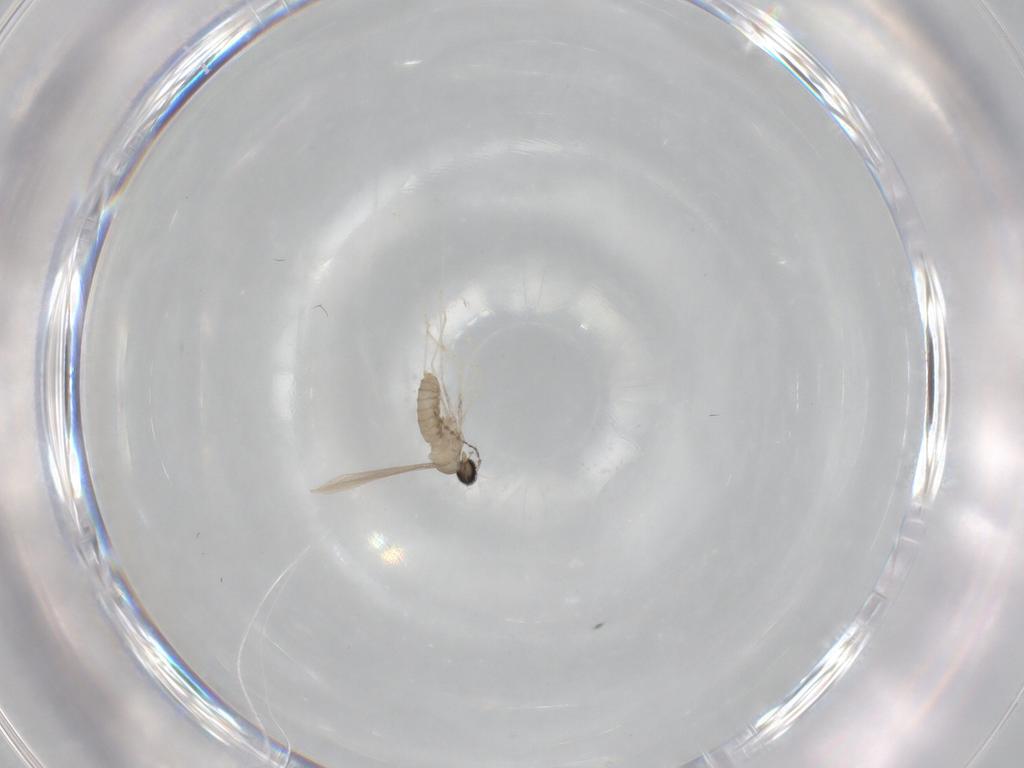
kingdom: Animalia
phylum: Arthropoda
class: Insecta
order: Diptera
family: Cecidomyiidae
